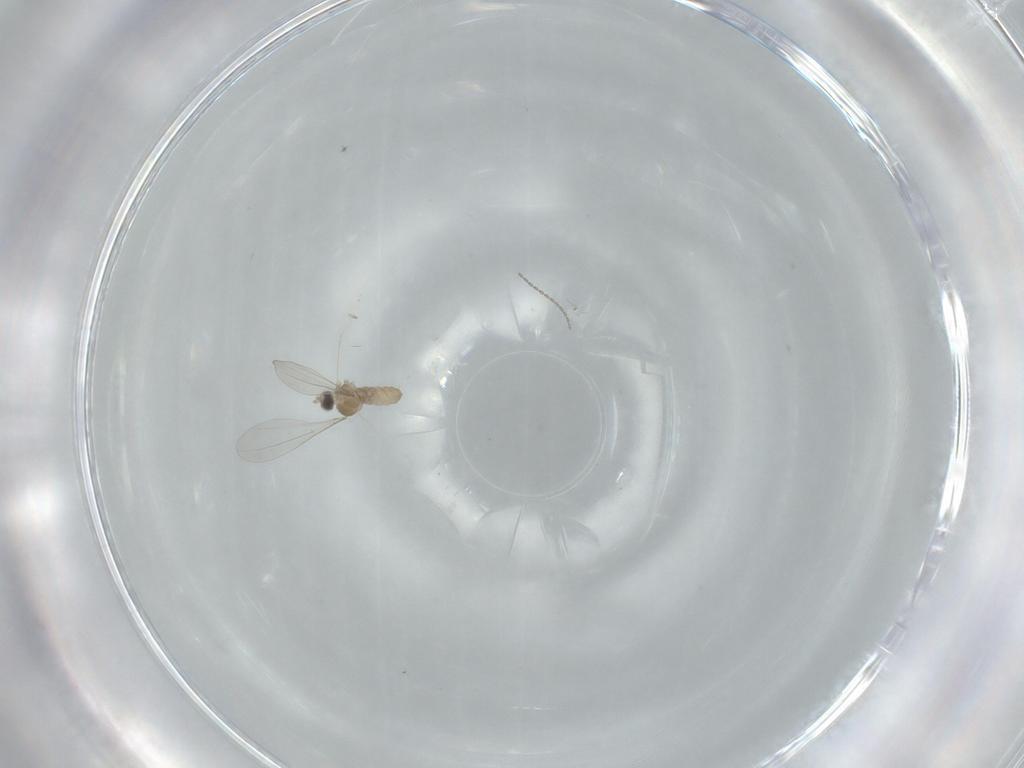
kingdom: Animalia
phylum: Arthropoda
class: Insecta
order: Diptera
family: Cecidomyiidae
